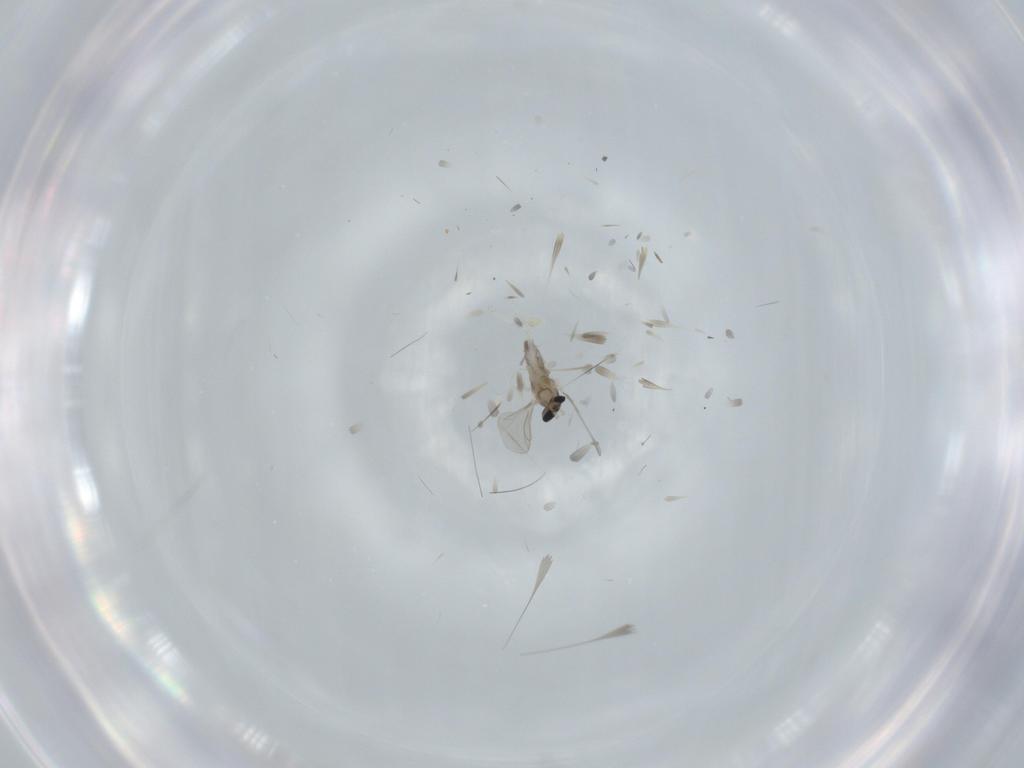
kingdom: Animalia
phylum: Arthropoda
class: Insecta
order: Diptera
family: Cecidomyiidae
